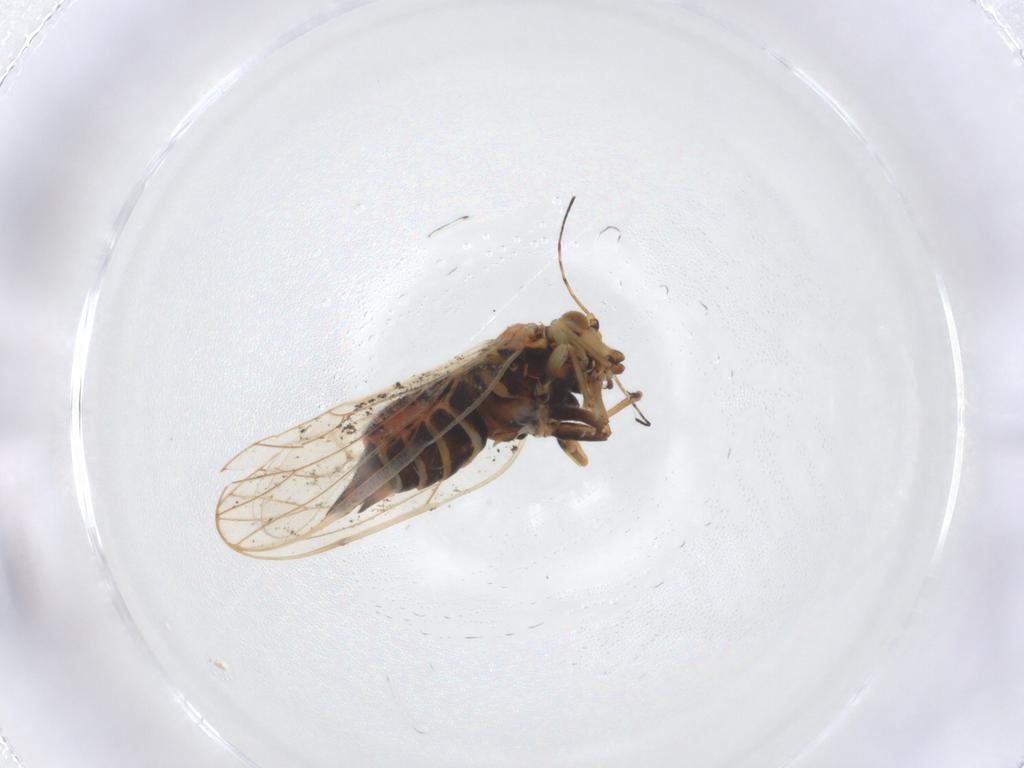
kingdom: Animalia
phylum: Arthropoda
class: Insecta
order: Hemiptera
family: Psyllidae
